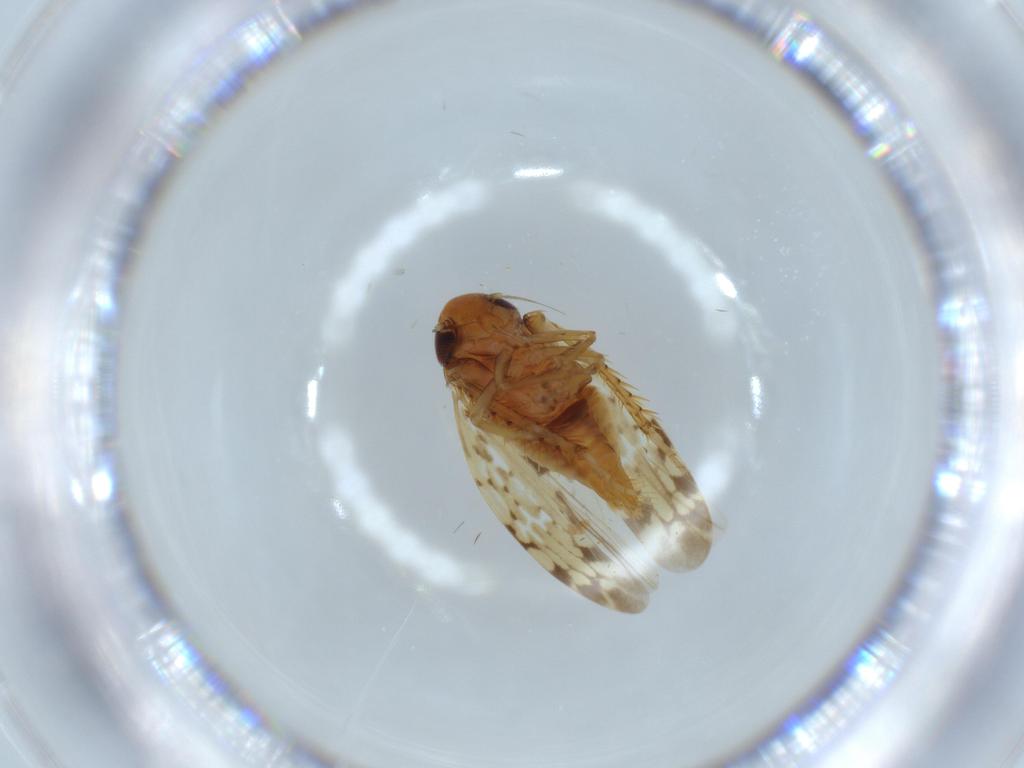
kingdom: Animalia
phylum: Arthropoda
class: Insecta
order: Hemiptera
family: Cicadellidae
